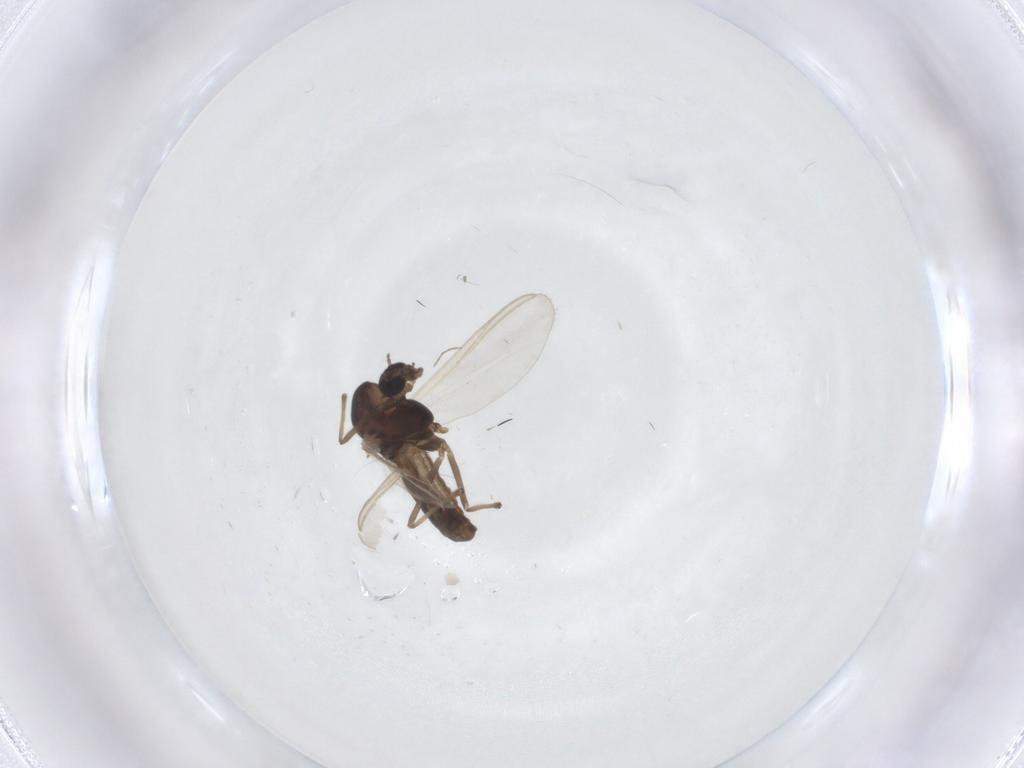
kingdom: Animalia
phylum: Arthropoda
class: Insecta
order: Diptera
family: Chironomidae
